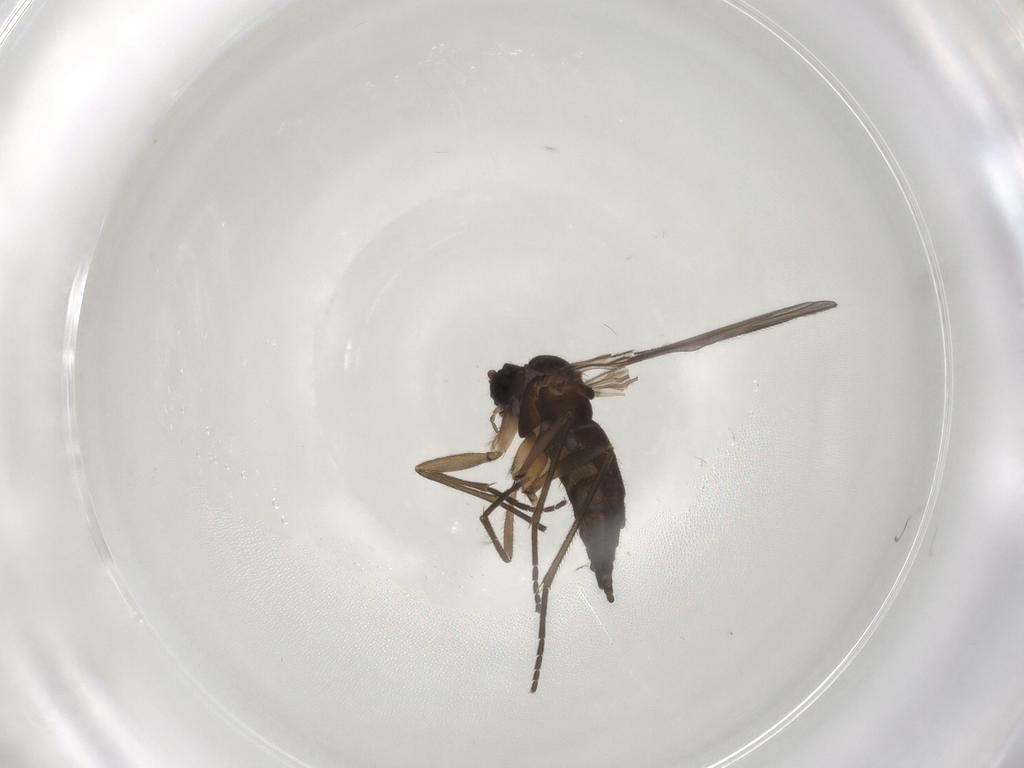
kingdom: Animalia
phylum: Arthropoda
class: Insecta
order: Diptera
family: Sciaridae
